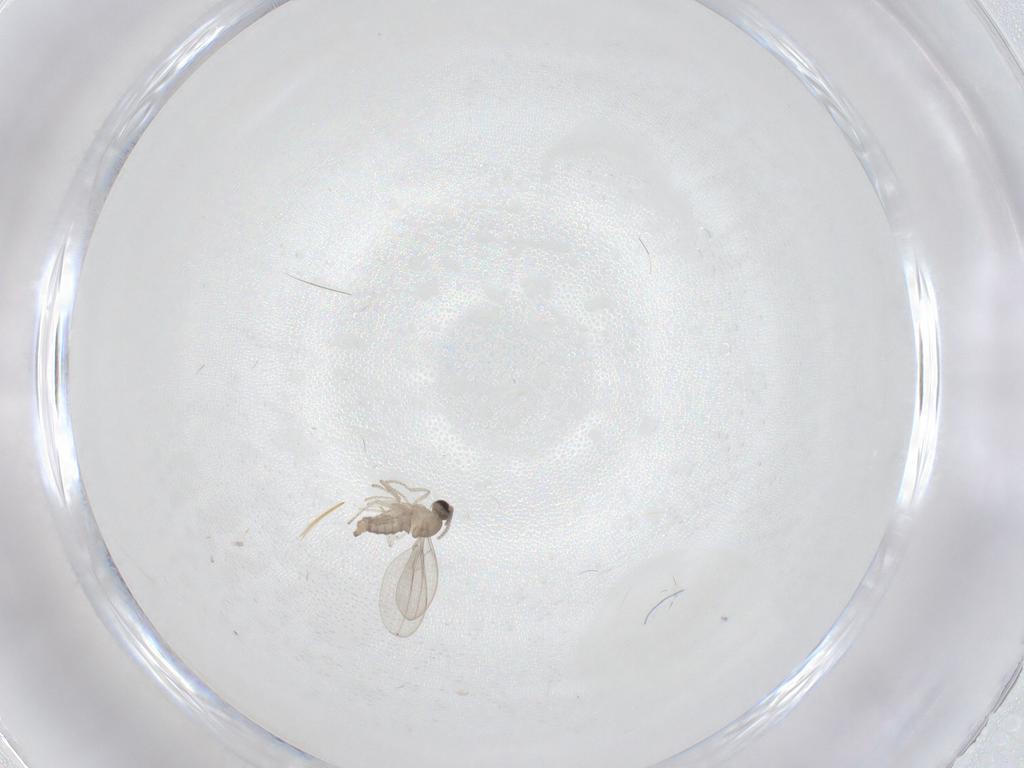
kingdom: Animalia
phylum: Arthropoda
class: Insecta
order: Diptera
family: Cecidomyiidae
